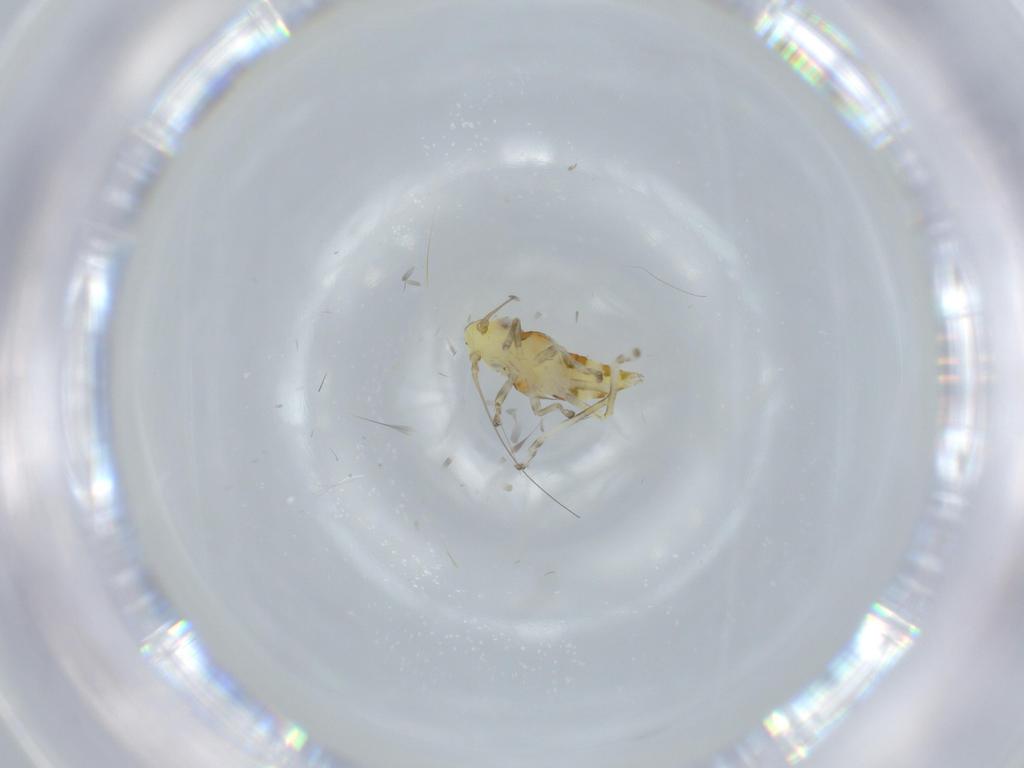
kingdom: Animalia
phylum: Arthropoda
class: Insecta
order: Hemiptera
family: Cicadellidae
